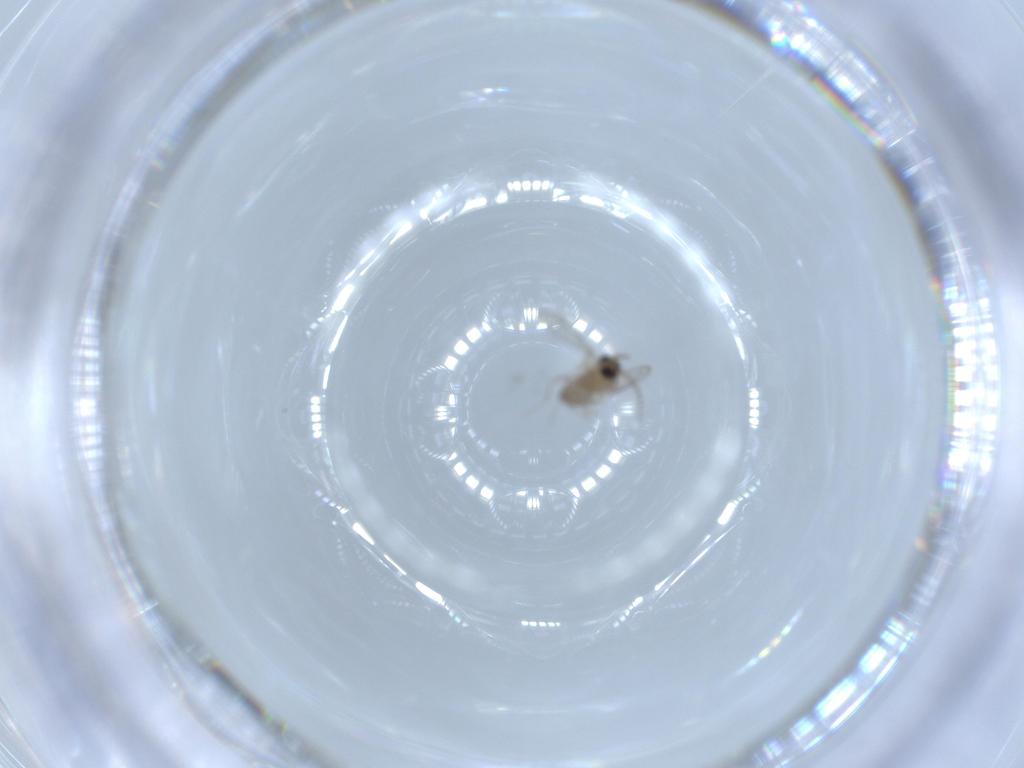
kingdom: Animalia
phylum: Arthropoda
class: Insecta
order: Diptera
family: Cecidomyiidae
